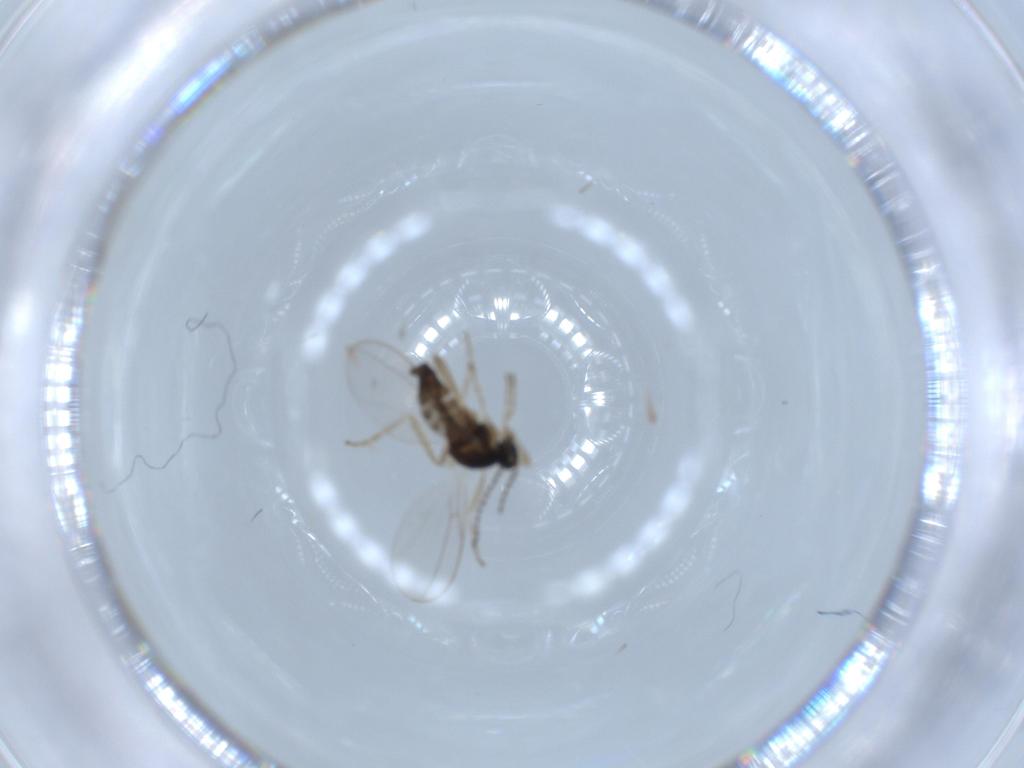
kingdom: Animalia
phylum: Arthropoda
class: Insecta
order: Diptera
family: Cecidomyiidae
